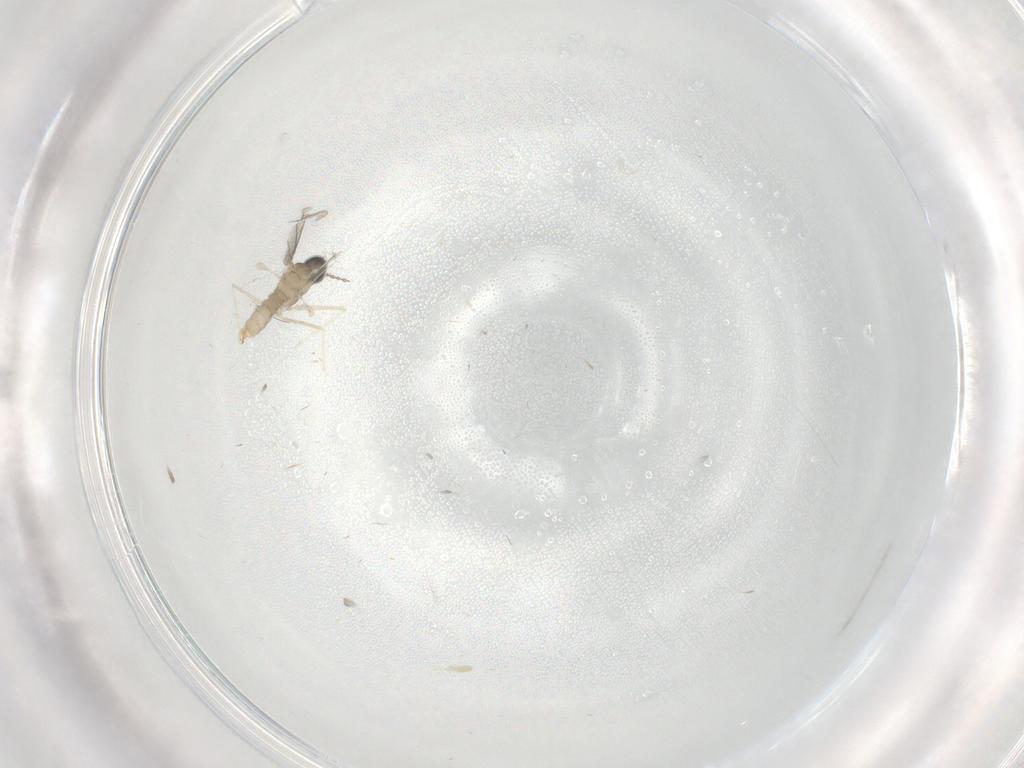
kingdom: Animalia
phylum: Arthropoda
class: Insecta
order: Diptera
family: Cecidomyiidae
